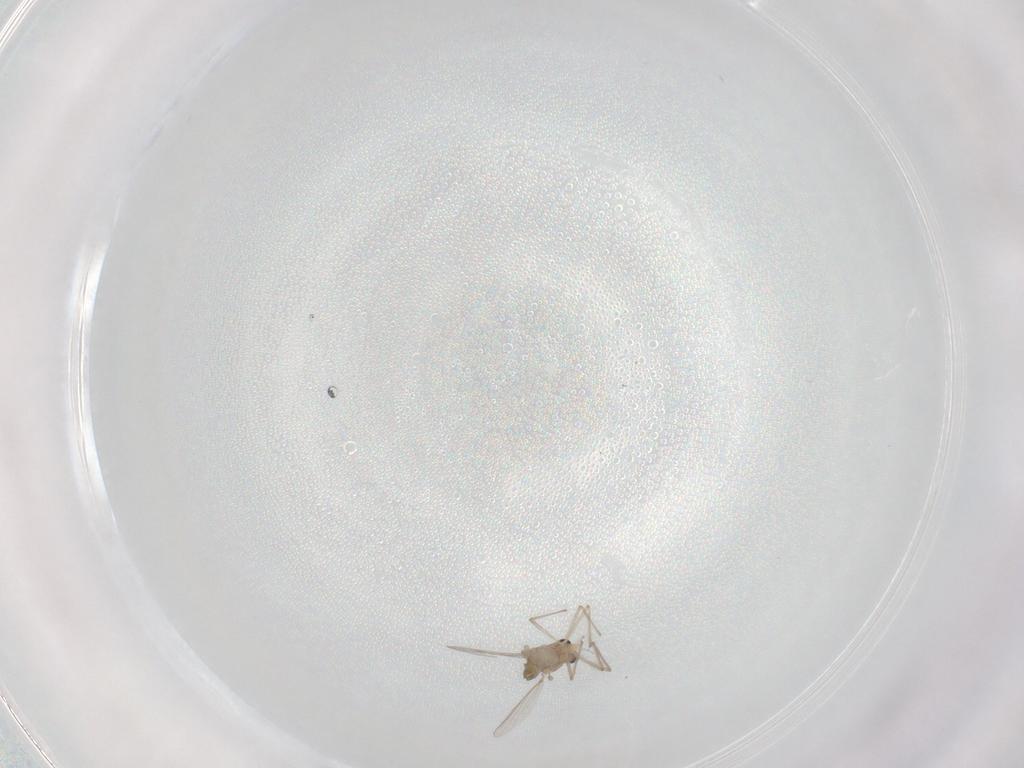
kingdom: Animalia
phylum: Arthropoda
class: Insecta
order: Diptera
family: Chironomidae
